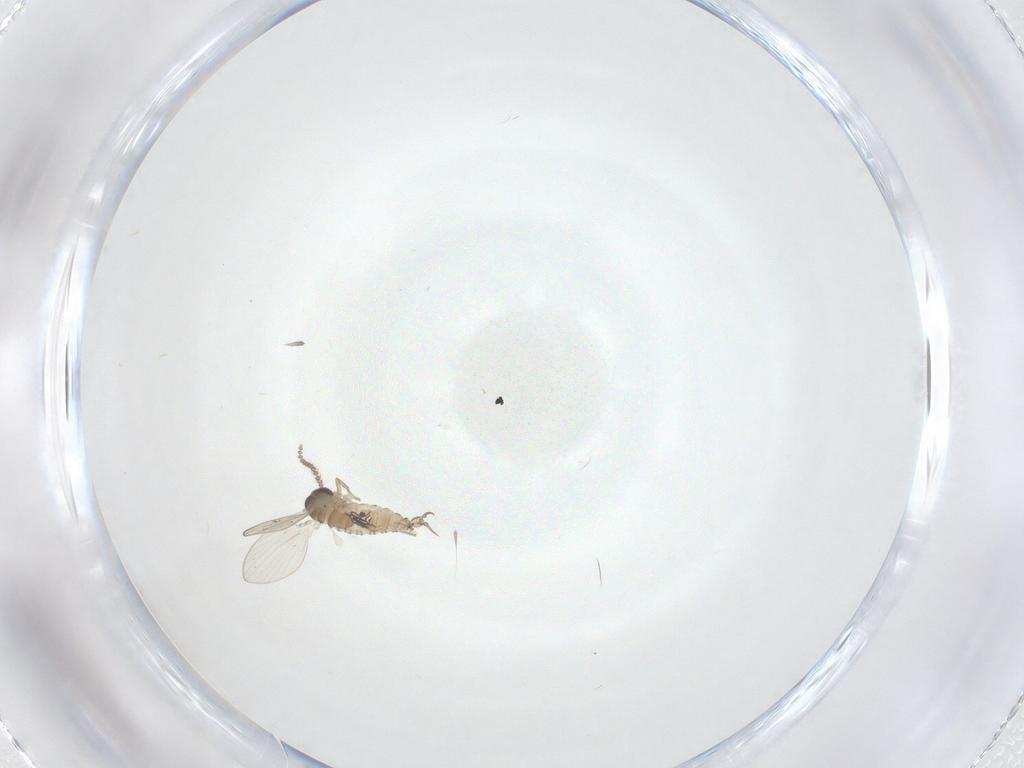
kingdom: Animalia
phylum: Arthropoda
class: Insecta
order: Diptera
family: Psychodidae
